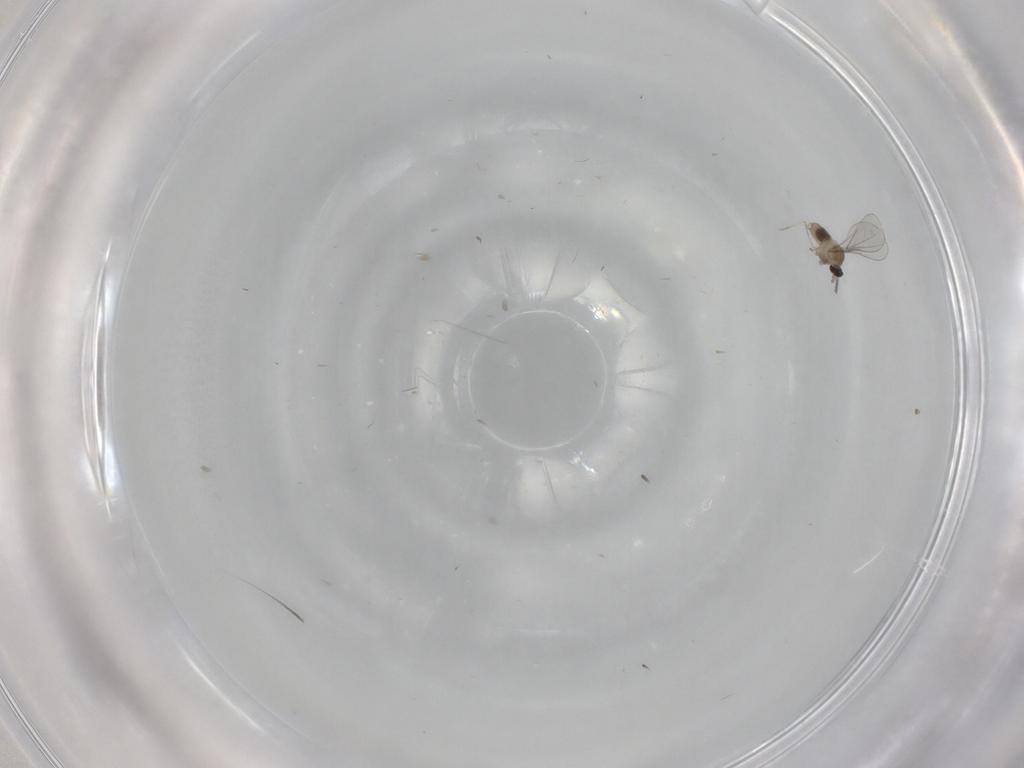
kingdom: Animalia
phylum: Arthropoda
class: Insecta
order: Diptera
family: Cecidomyiidae
